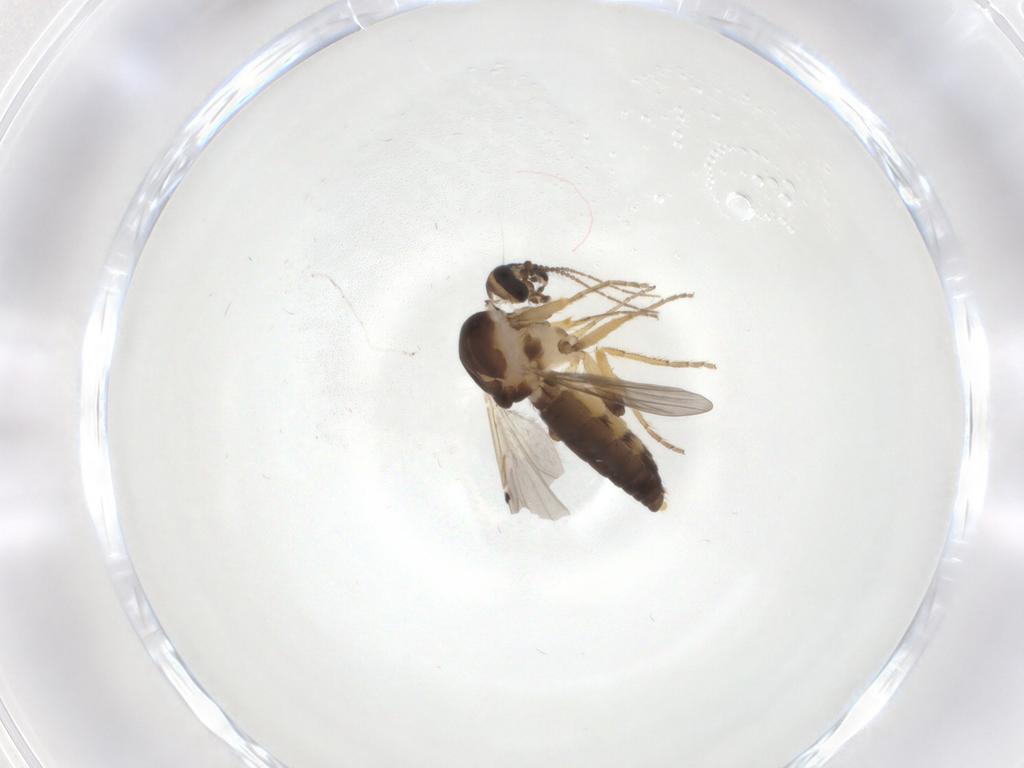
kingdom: Animalia
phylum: Arthropoda
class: Insecta
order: Diptera
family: Ceratopogonidae
